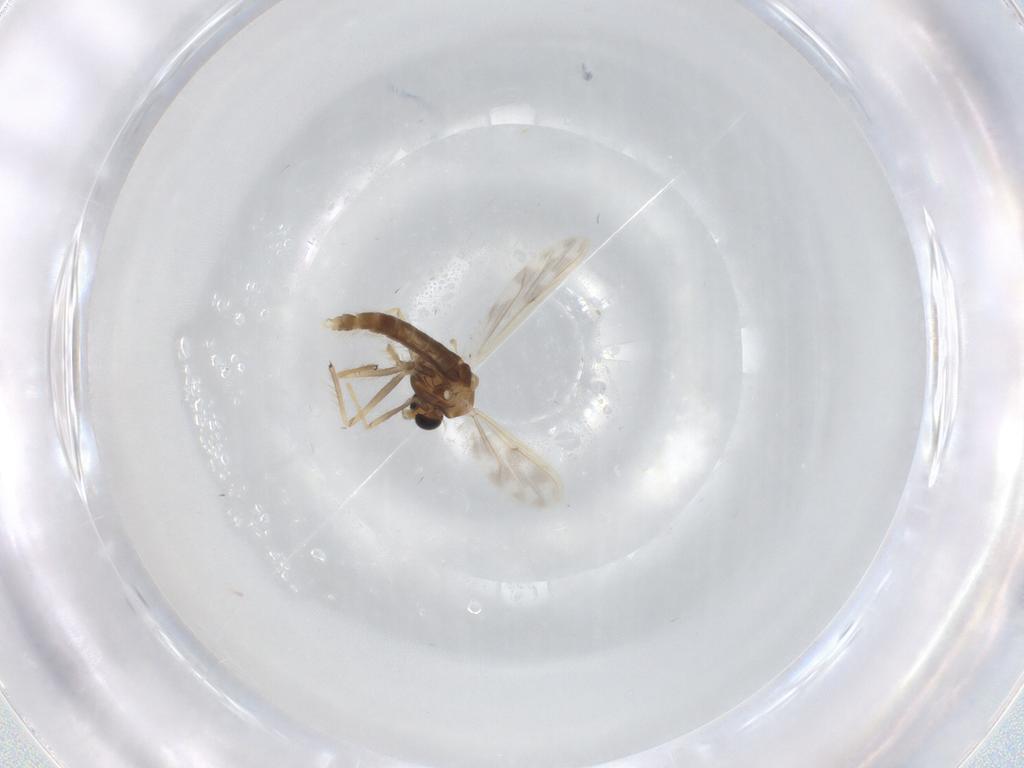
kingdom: Animalia
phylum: Arthropoda
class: Insecta
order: Diptera
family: Chironomidae
